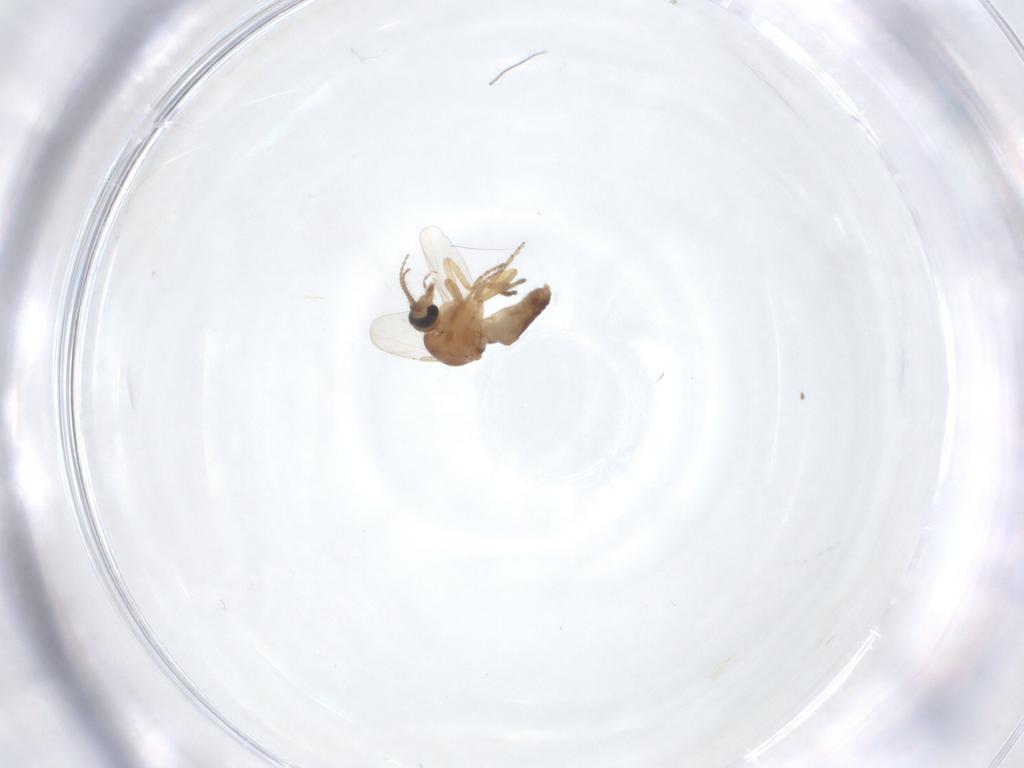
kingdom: Animalia
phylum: Arthropoda
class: Insecta
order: Diptera
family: Ceratopogonidae
